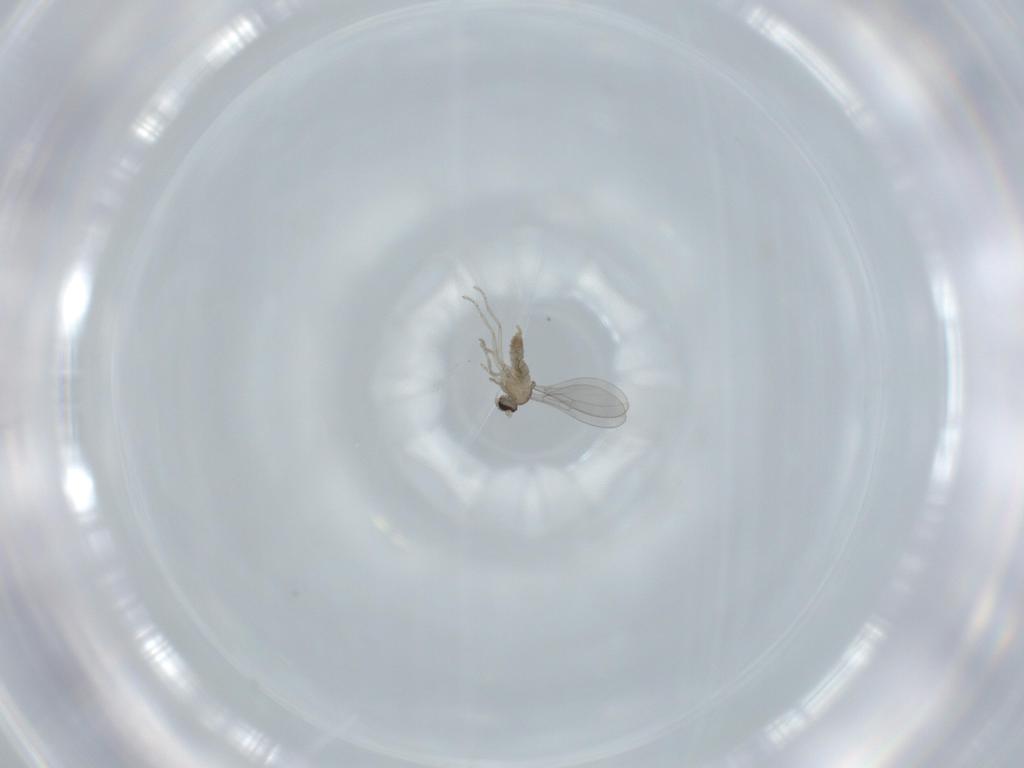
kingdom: Animalia
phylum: Arthropoda
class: Insecta
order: Diptera
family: Cecidomyiidae
